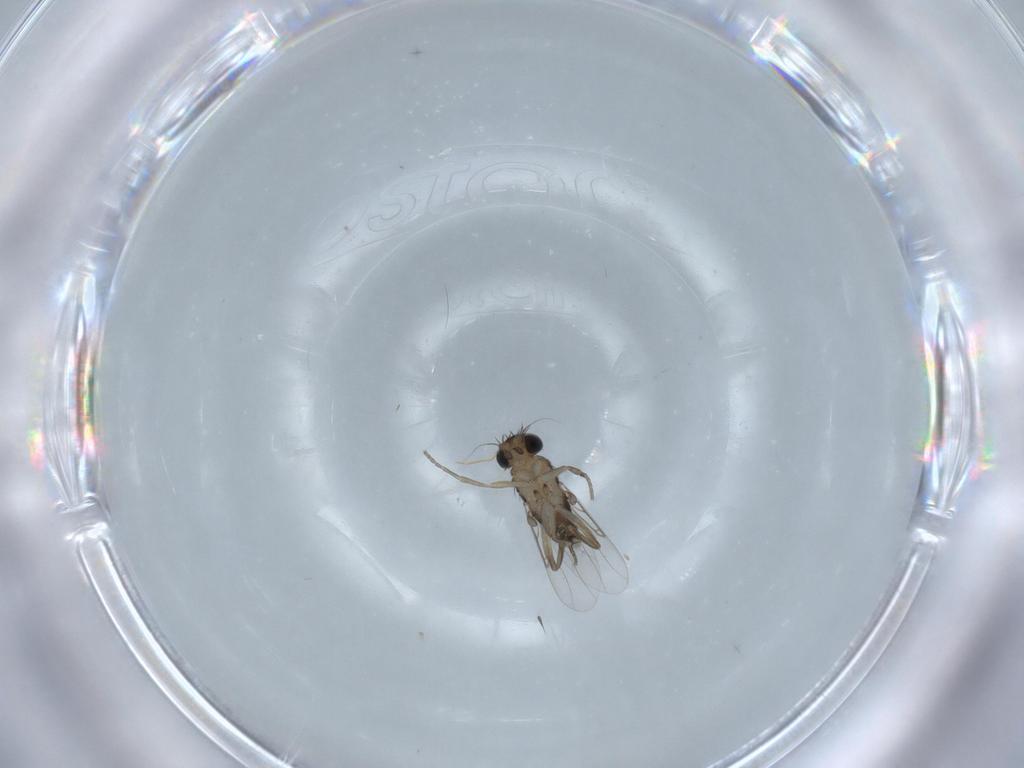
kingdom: Animalia
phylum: Arthropoda
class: Insecta
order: Diptera
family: Phoridae
